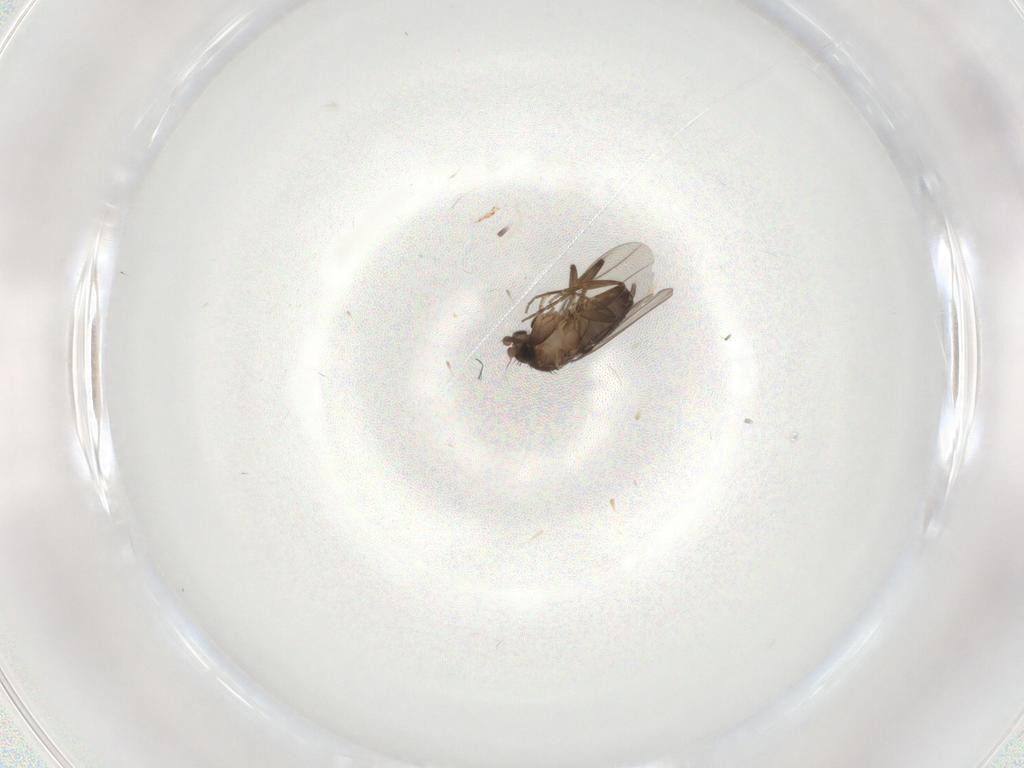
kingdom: Animalia
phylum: Arthropoda
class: Insecta
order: Diptera
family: Phoridae
